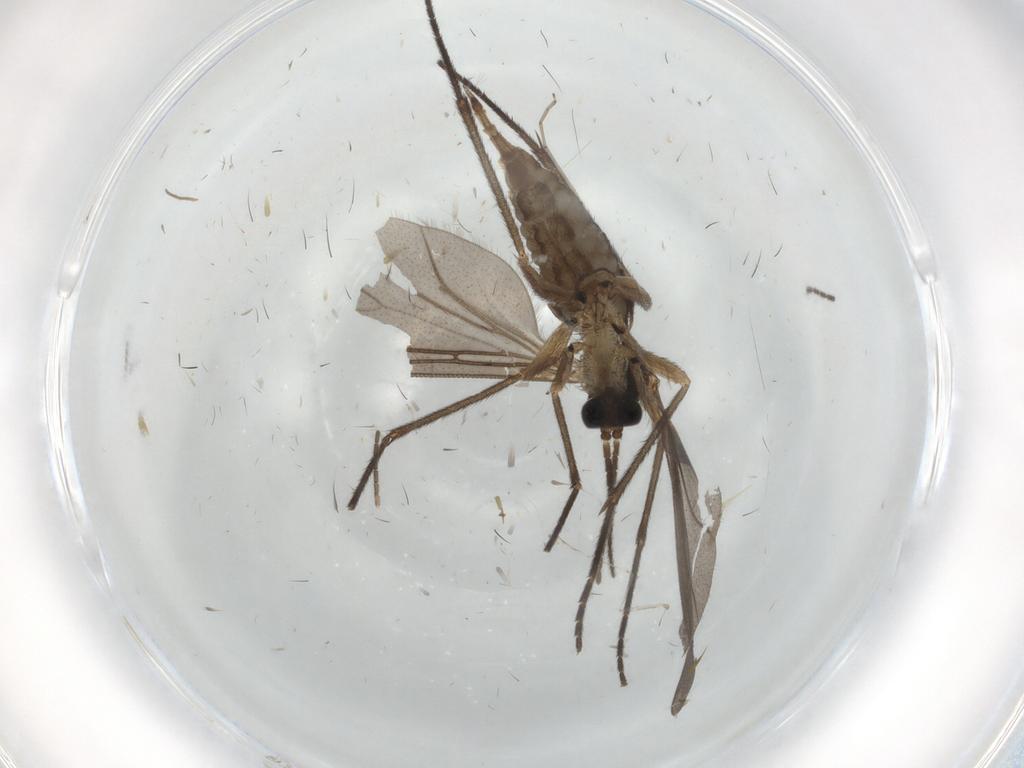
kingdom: Animalia
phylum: Arthropoda
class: Insecta
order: Diptera
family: Sciaridae
